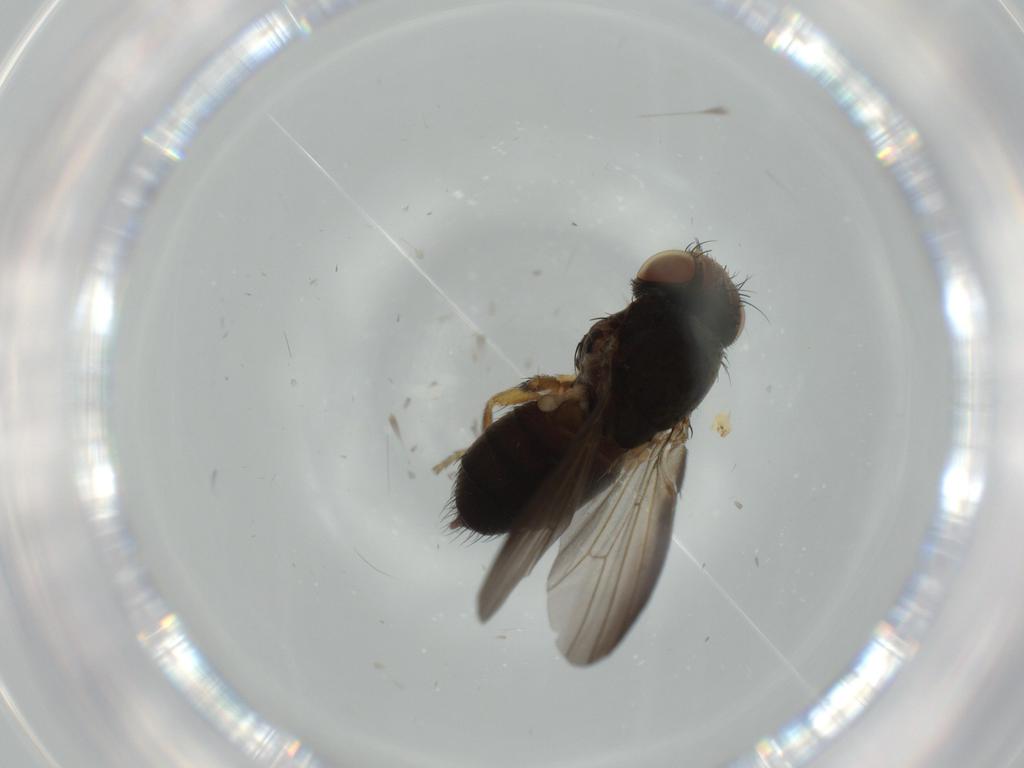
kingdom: Animalia
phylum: Arthropoda
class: Insecta
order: Diptera
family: Milichiidae
